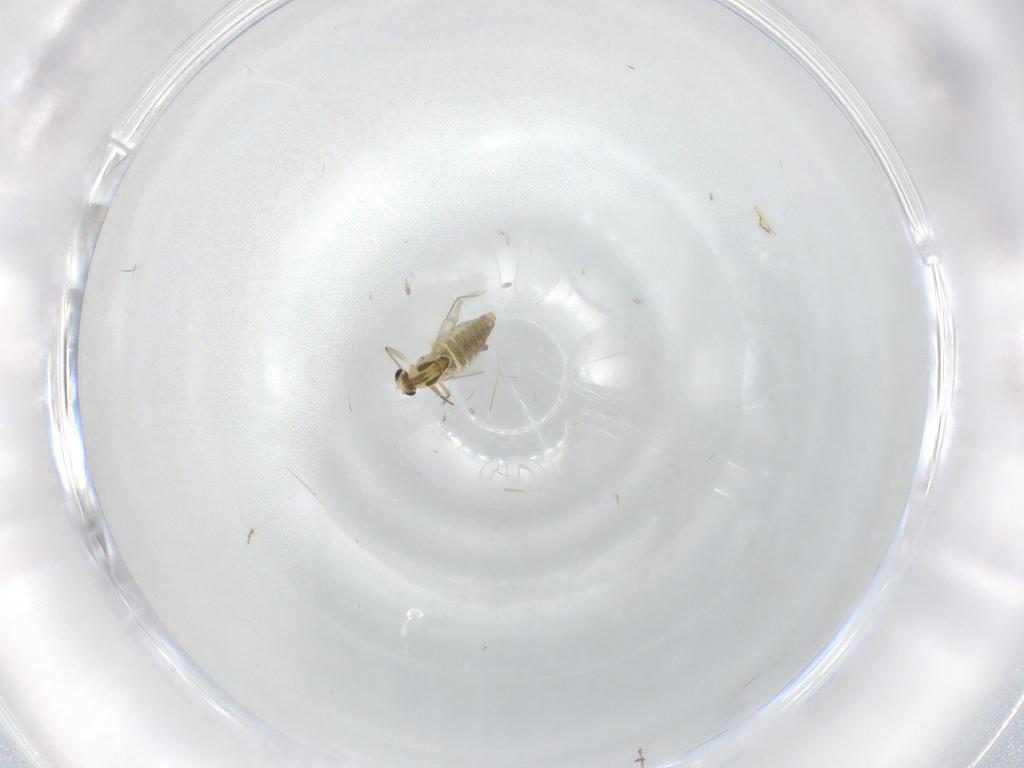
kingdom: Animalia
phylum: Arthropoda
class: Insecta
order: Diptera
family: Chironomidae
